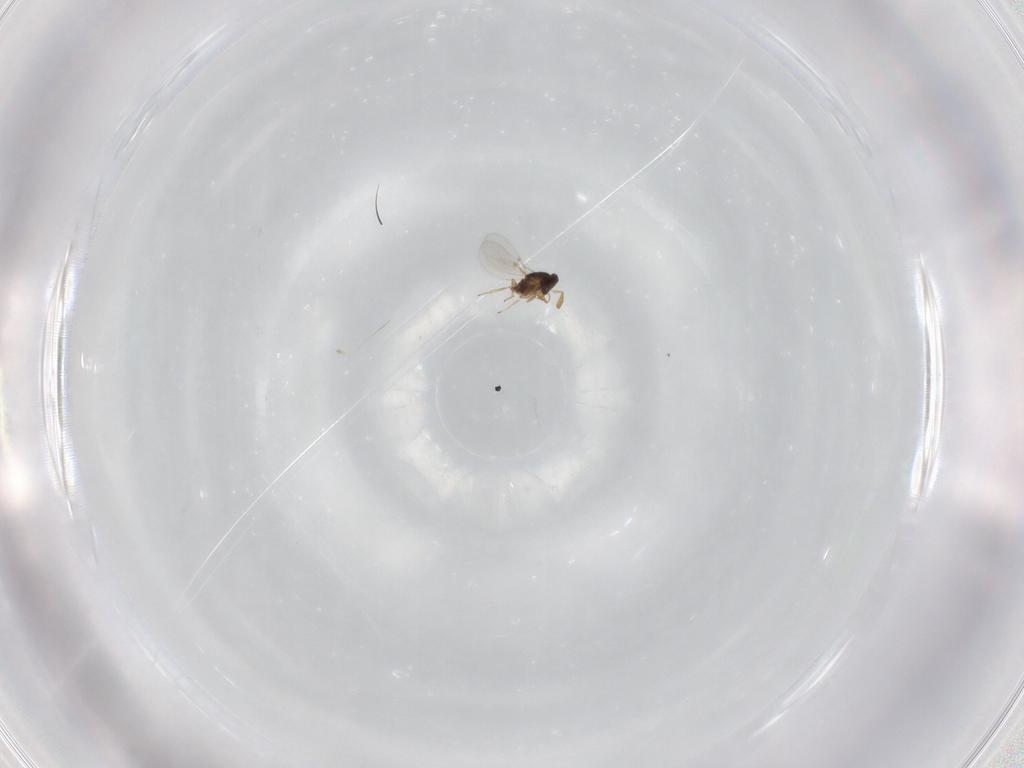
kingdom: Animalia
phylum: Arthropoda
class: Insecta
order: Hymenoptera
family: Encyrtidae
